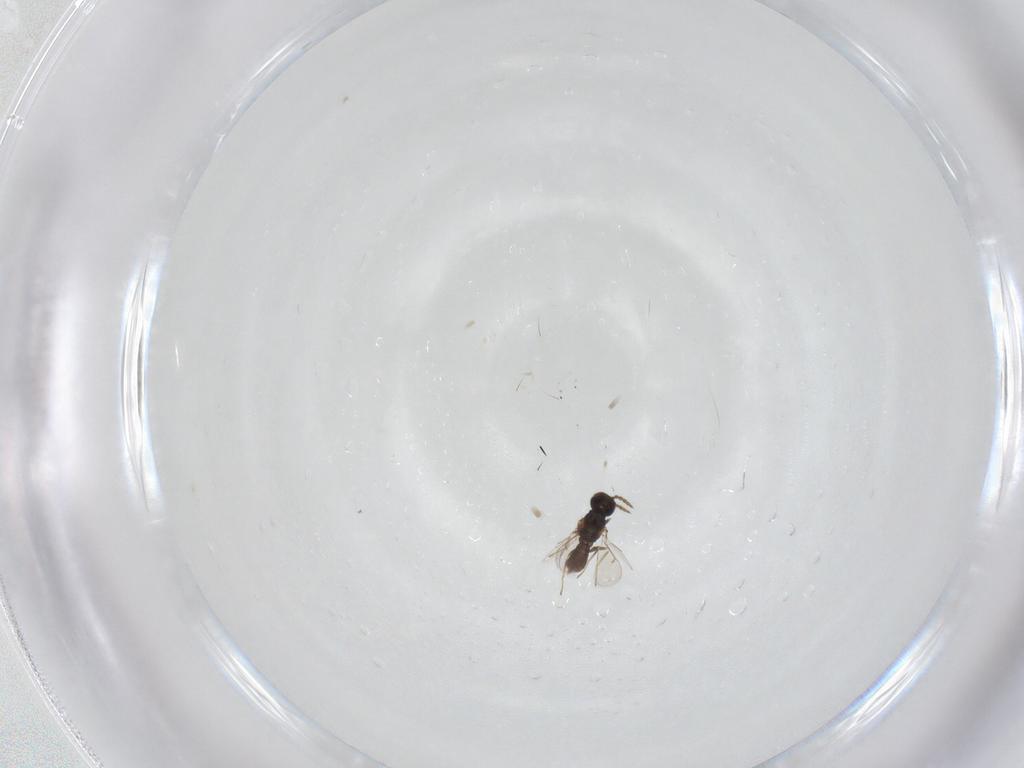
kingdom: Animalia
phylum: Arthropoda
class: Insecta
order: Hymenoptera
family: Eulophidae
